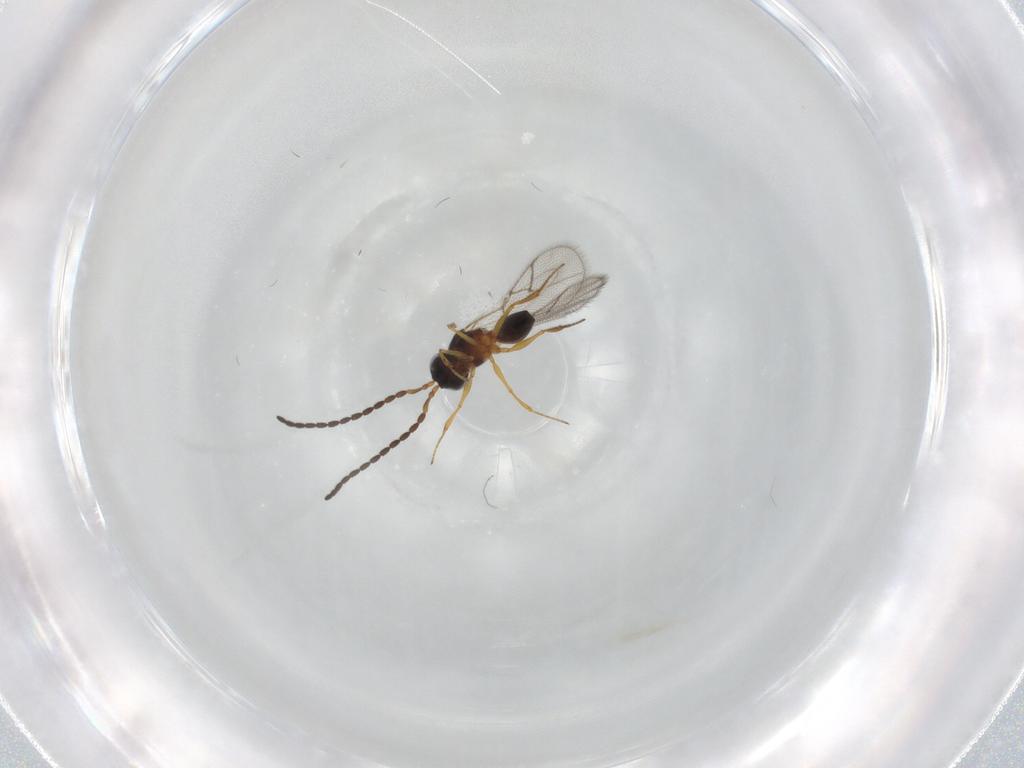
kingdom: Animalia
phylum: Arthropoda
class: Insecta
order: Hymenoptera
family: Figitidae
